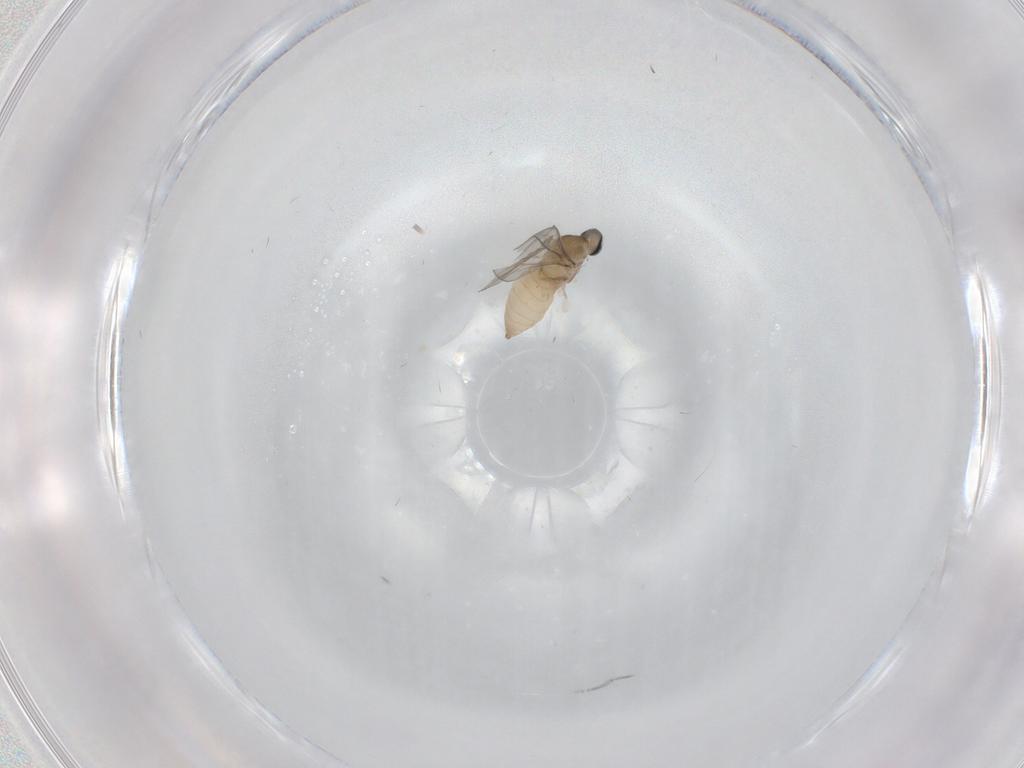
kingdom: Animalia
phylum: Arthropoda
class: Insecta
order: Diptera
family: Cecidomyiidae
